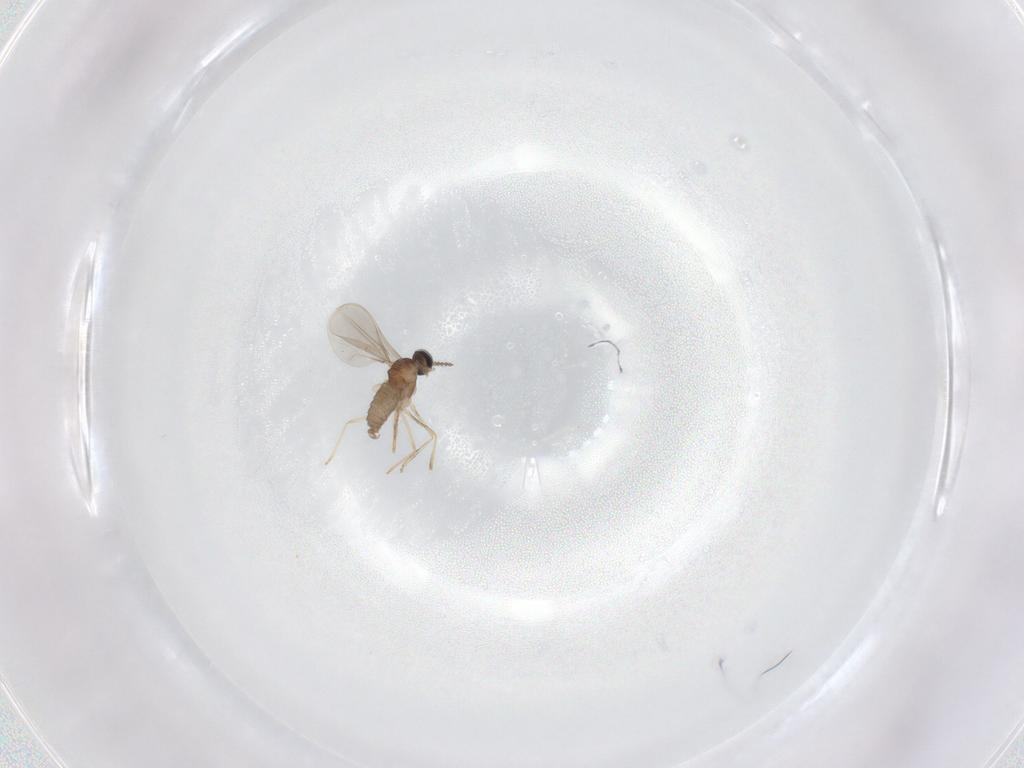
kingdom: Animalia
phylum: Arthropoda
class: Insecta
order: Diptera
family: Cecidomyiidae
